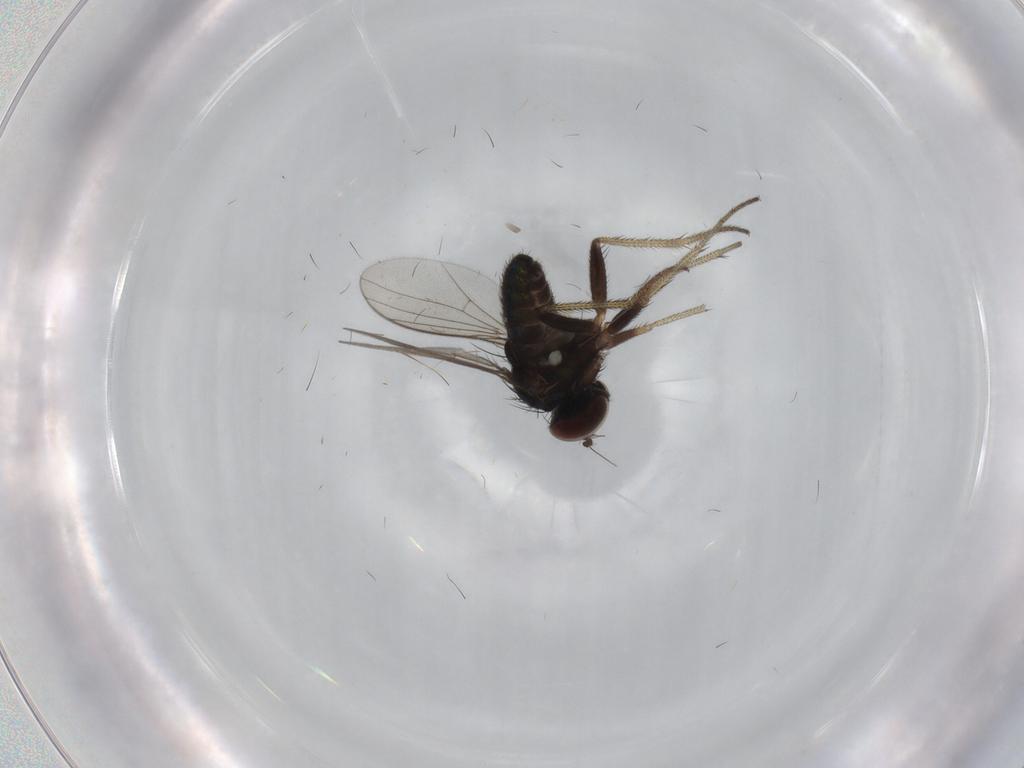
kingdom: Animalia
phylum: Arthropoda
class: Insecta
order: Diptera
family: Dolichopodidae
